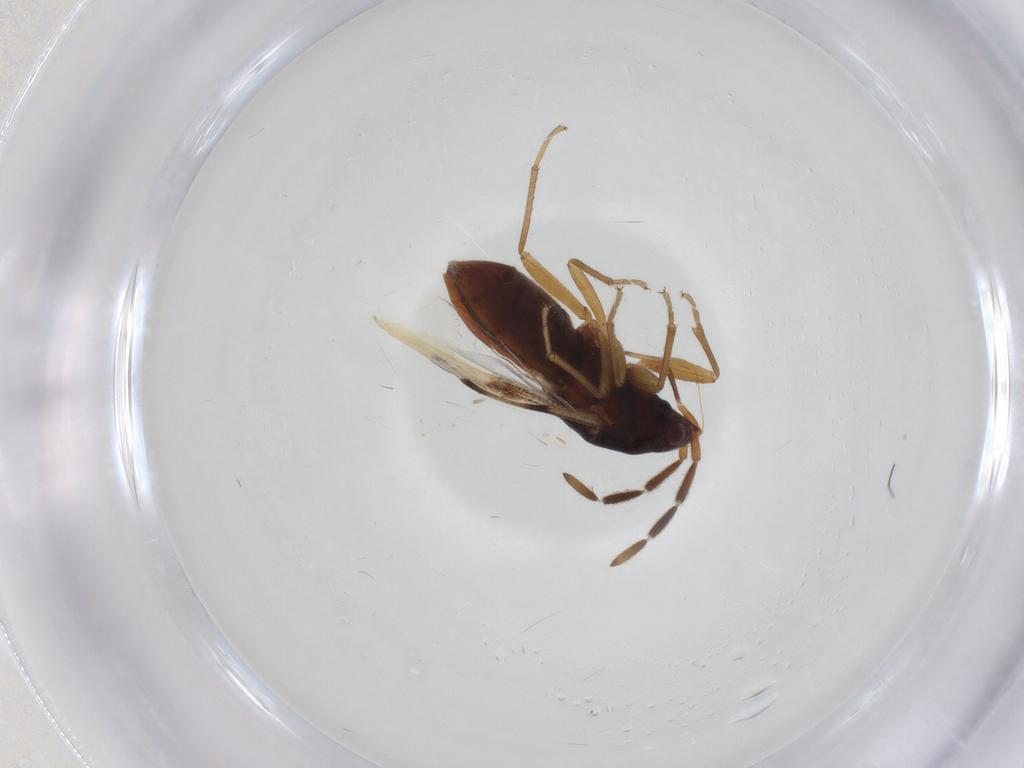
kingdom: Animalia
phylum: Arthropoda
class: Insecta
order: Hemiptera
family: Rhyparochromidae
